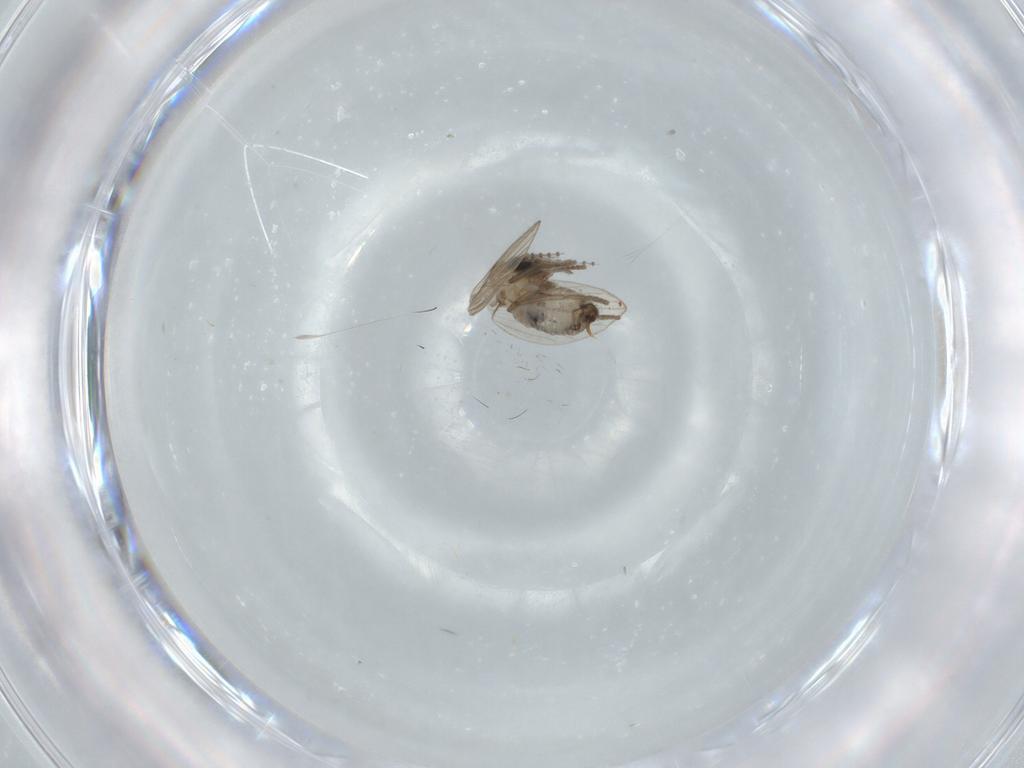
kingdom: Animalia
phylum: Arthropoda
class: Insecta
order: Diptera
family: Psychodidae
